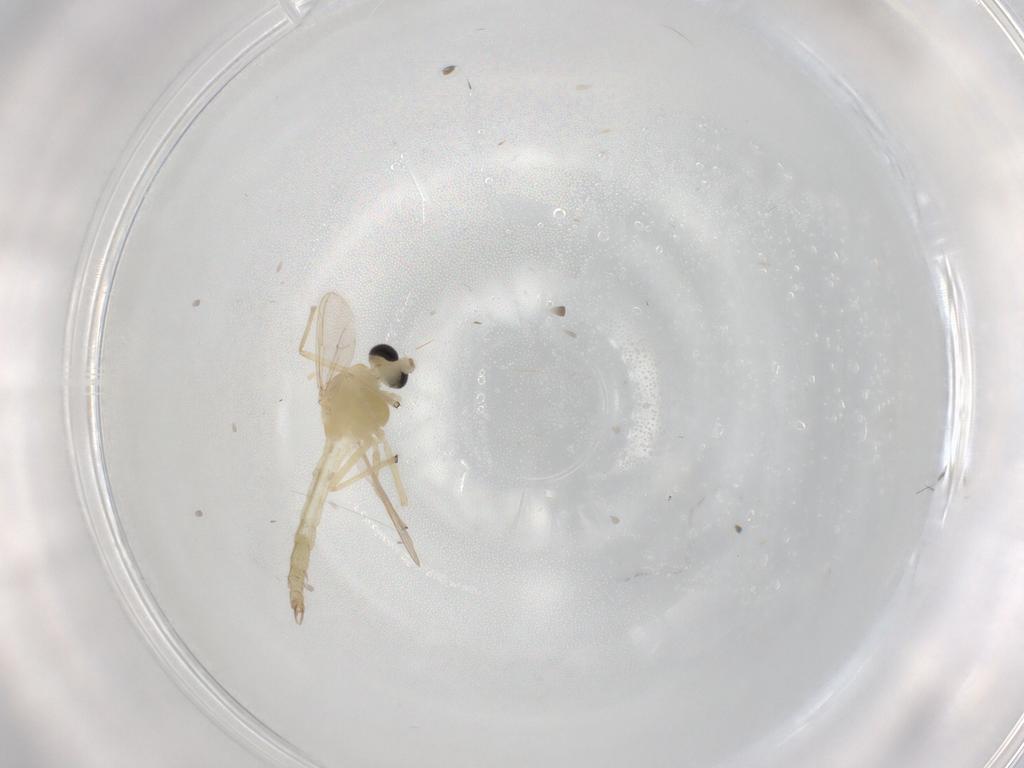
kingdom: Animalia
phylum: Arthropoda
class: Insecta
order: Diptera
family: Chironomidae
